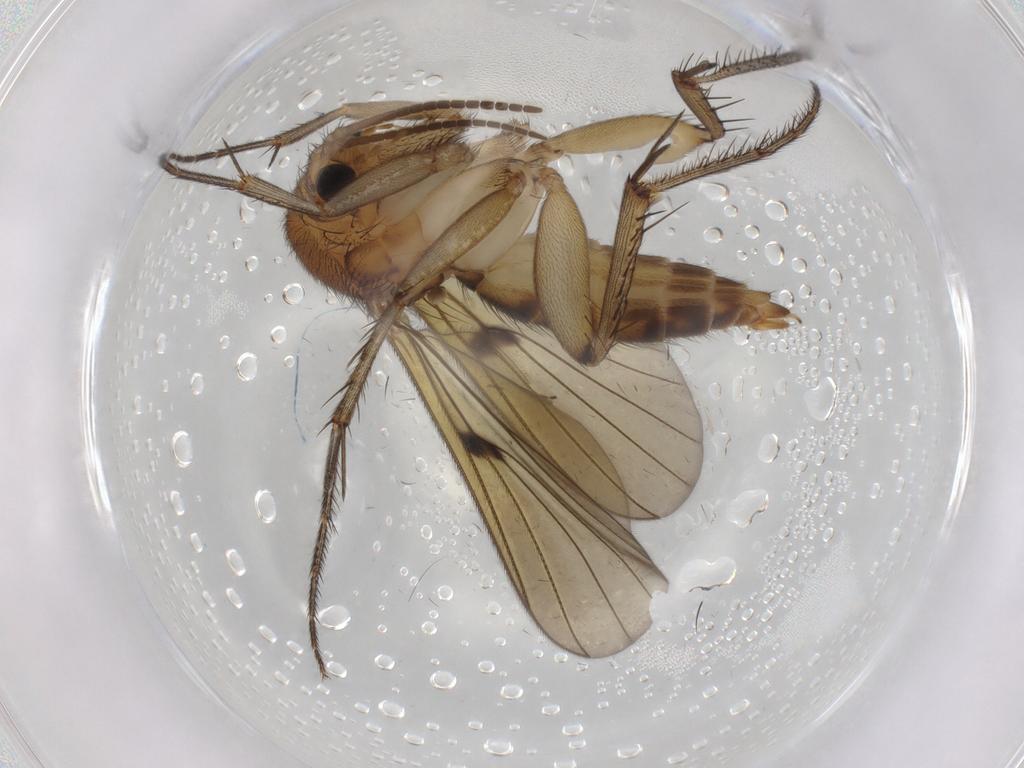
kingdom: Animalia
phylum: Arthropoda
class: Insecta
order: Diptera
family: Mycetophilidae
